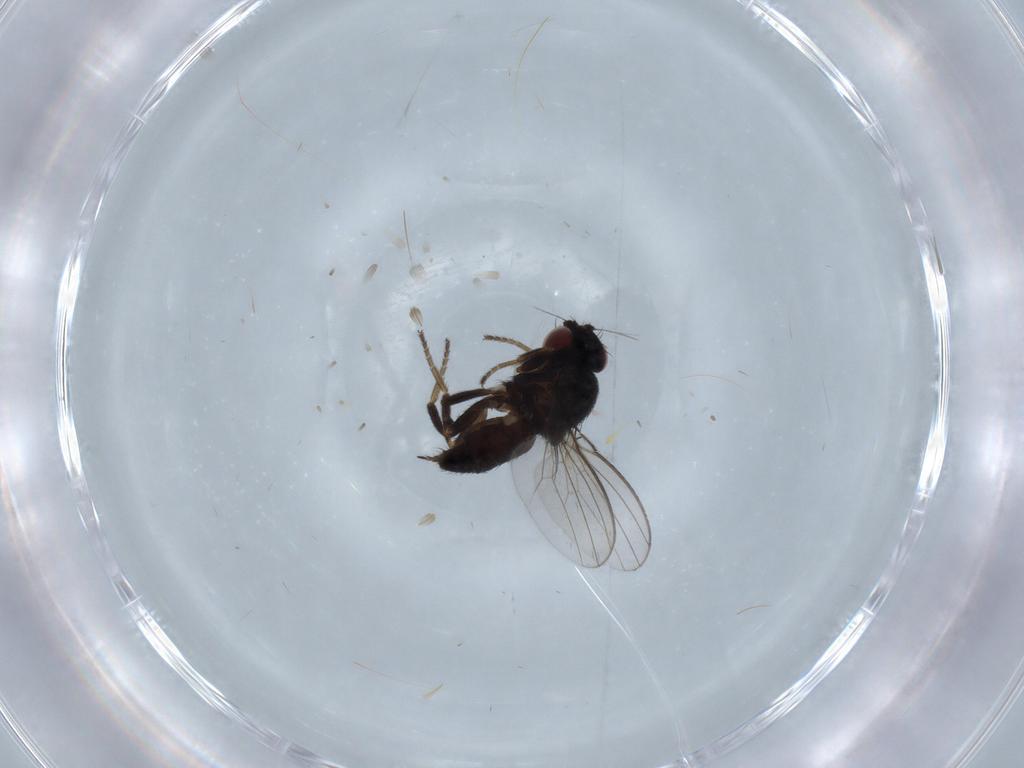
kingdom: Animalia
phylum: Arthropoda
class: Insecta
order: Diptera
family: Milichiidae
